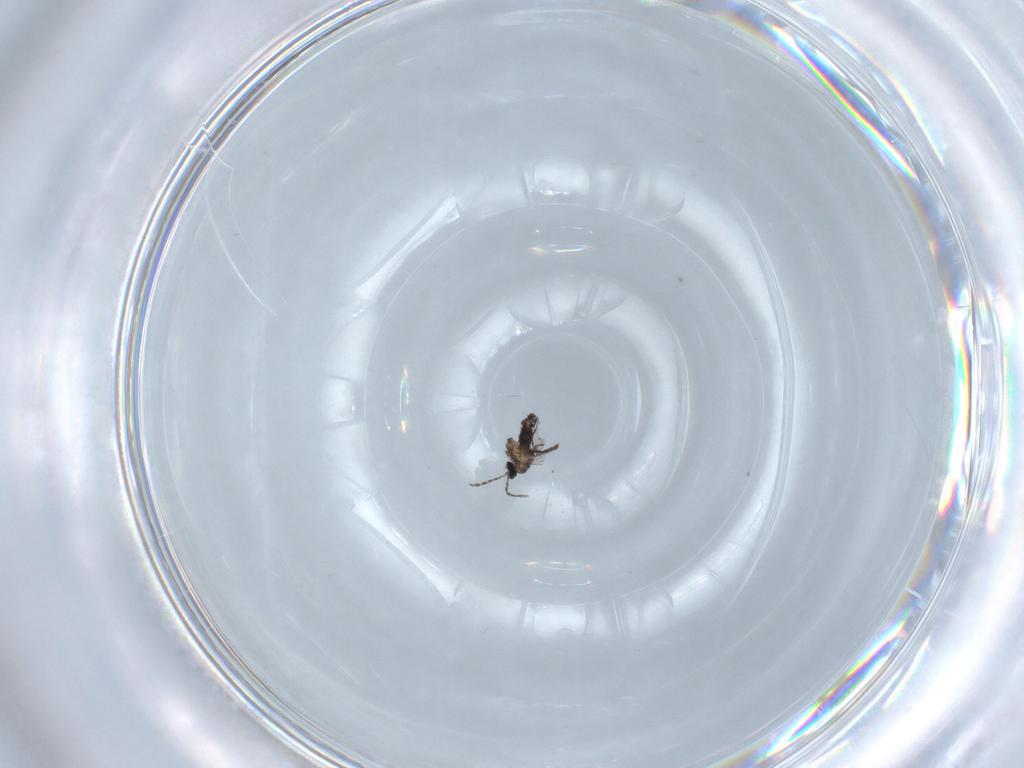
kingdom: Animalia
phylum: Arthropoda
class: Insecta
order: Diptera
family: Cecidomyiidae
